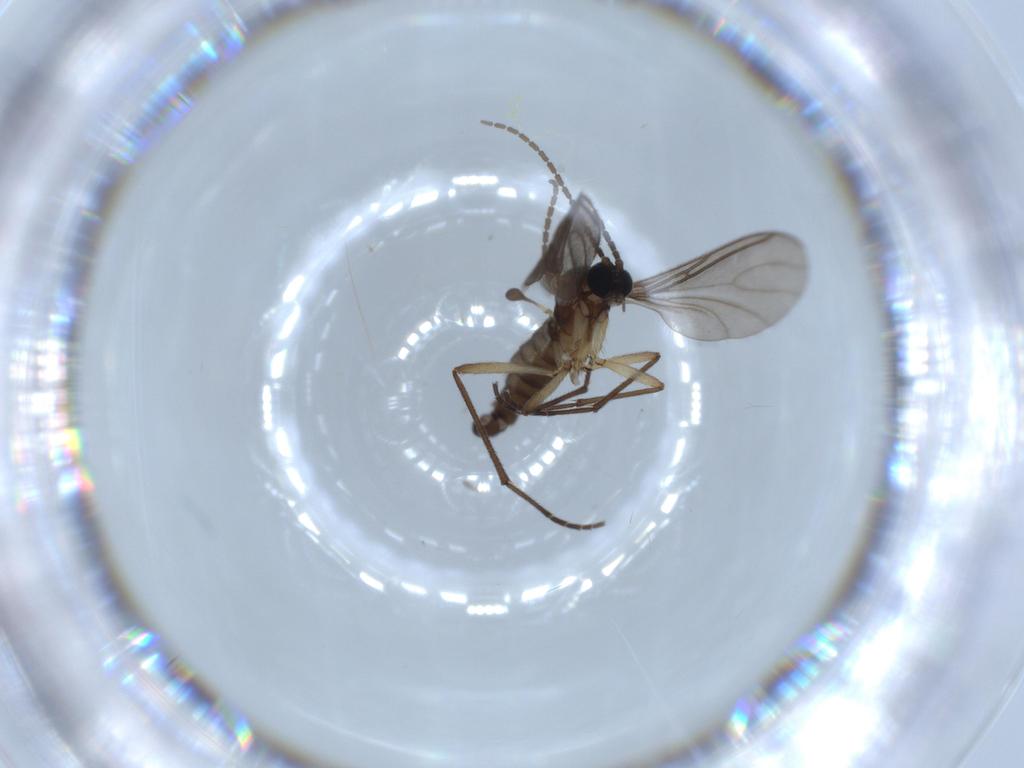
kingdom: Animalia
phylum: Arthropoda
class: Insecta
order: Diptera
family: Sciaridae
